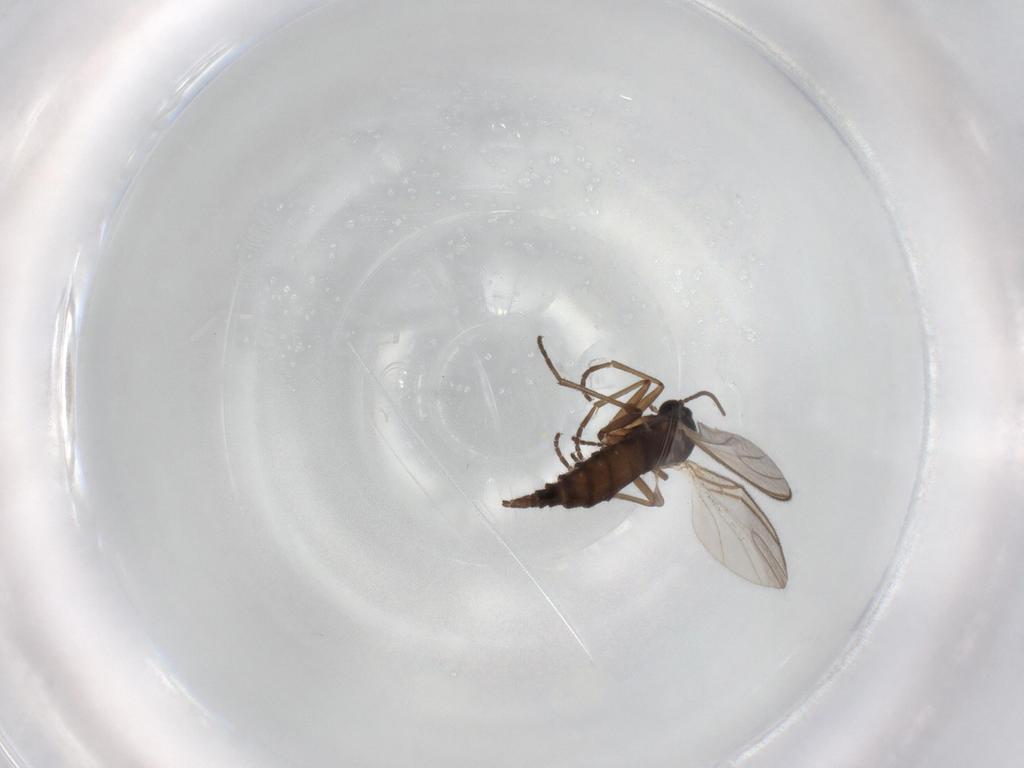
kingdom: Animalia
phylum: Arthropoda
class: Insecta
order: Diptera
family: Sciaridae
